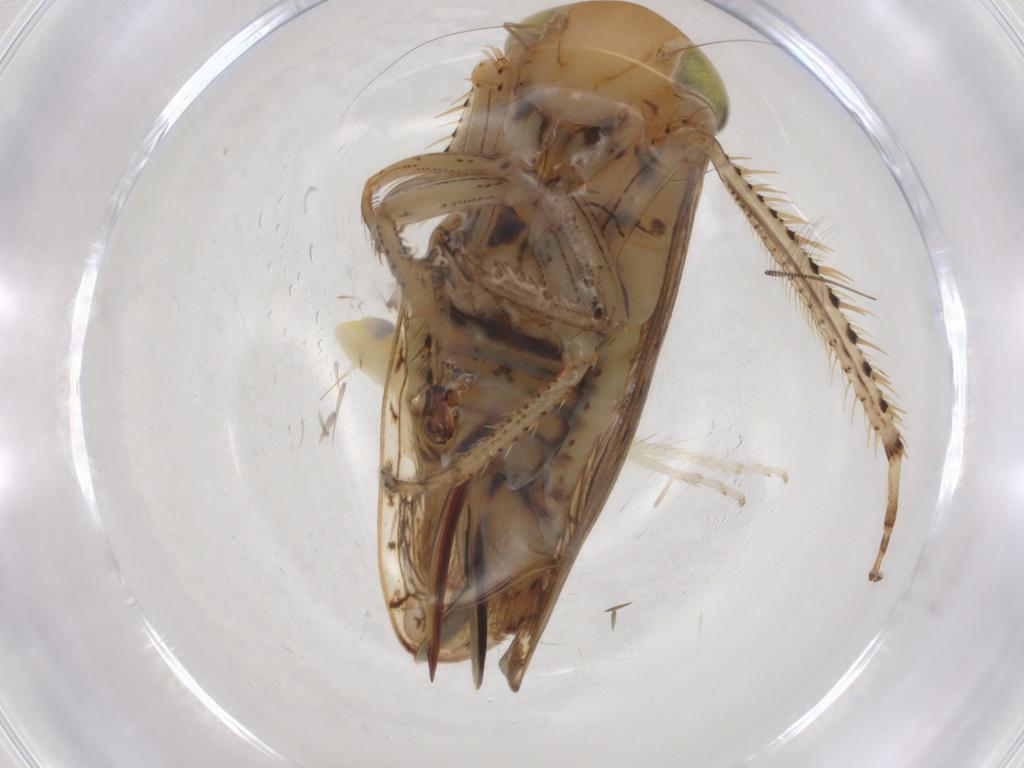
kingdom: Animalia
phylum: Arthropoda
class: Insecta
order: Hemiptera
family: Cicadellidae
